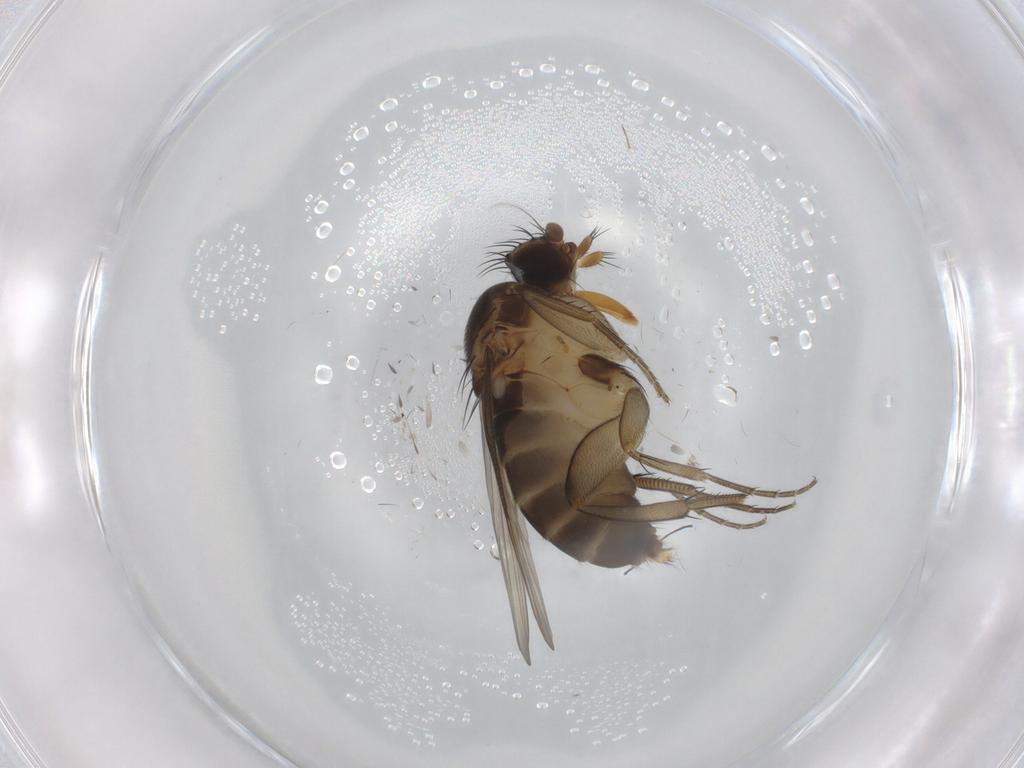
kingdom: Animalia
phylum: Arthropoda
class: Insecta
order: Diptera
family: Phoridae
